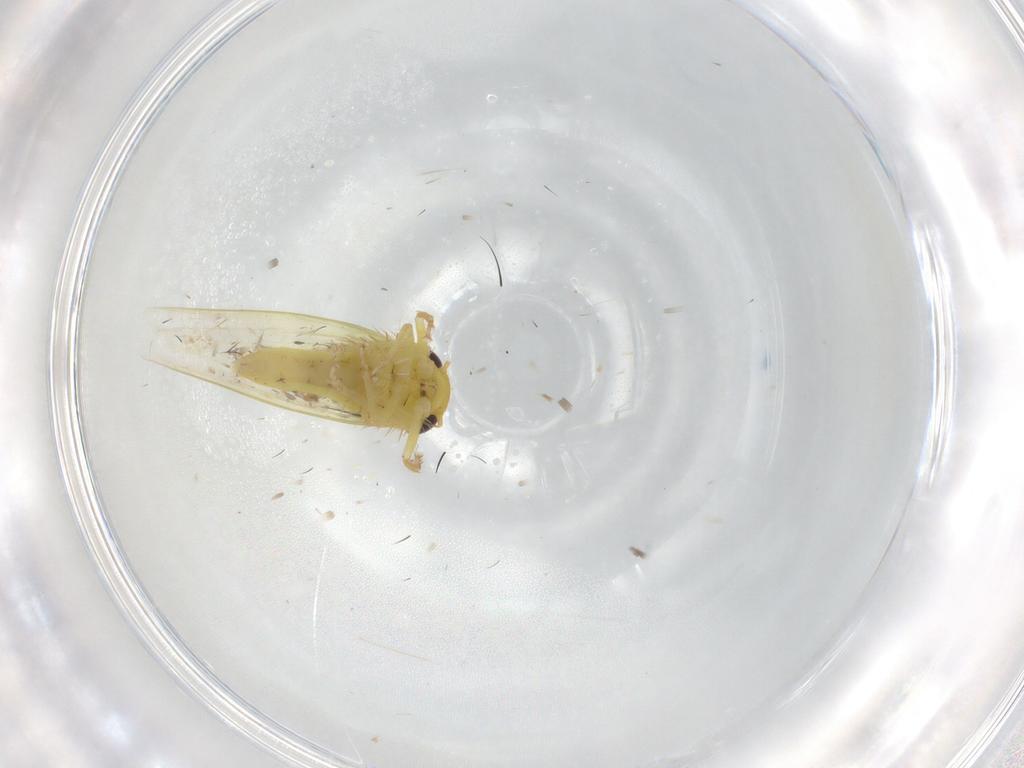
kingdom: Animalia
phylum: Arthropoda
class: Insecta
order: Hemiptera
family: Cicadellidae
